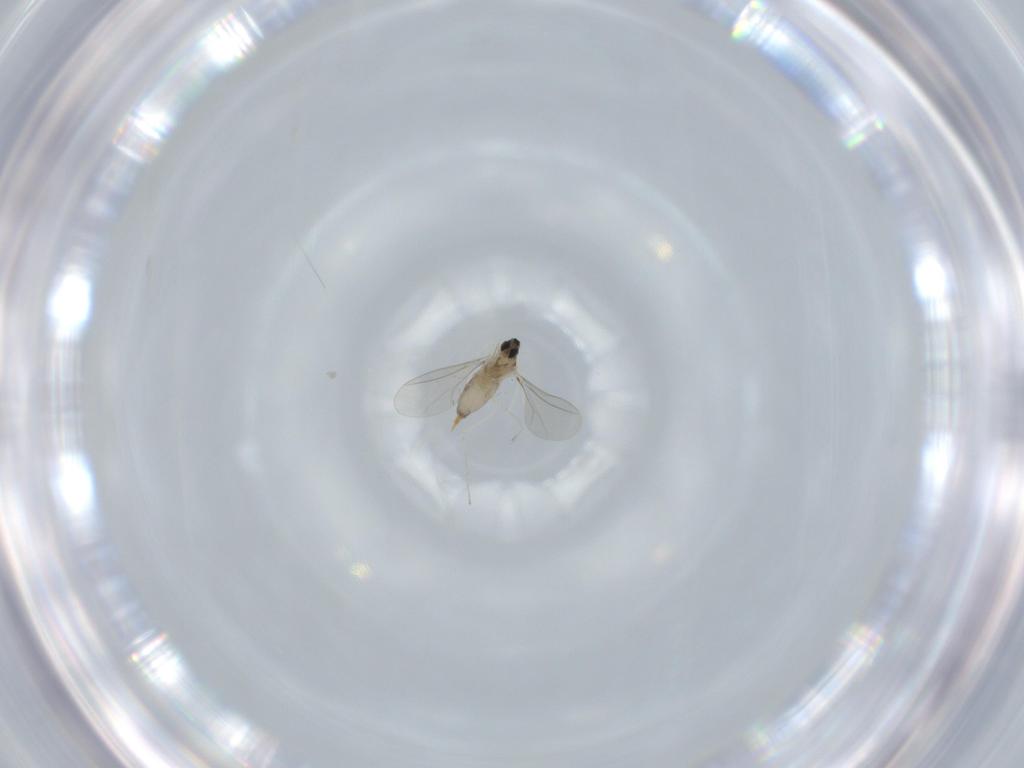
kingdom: Animalia
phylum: Arthropoda
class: Insecta
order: Diptera
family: Cecidomyiidae
